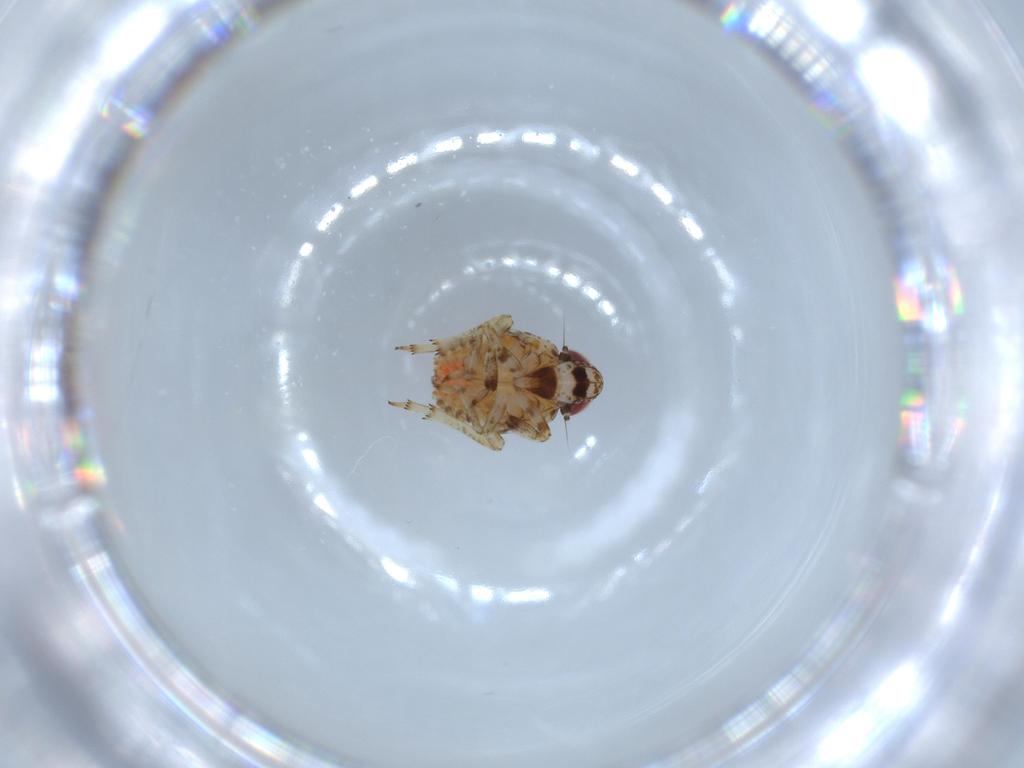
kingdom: Animalia
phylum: Arthropoda
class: Insecta
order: Hemiptera
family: Issidae
